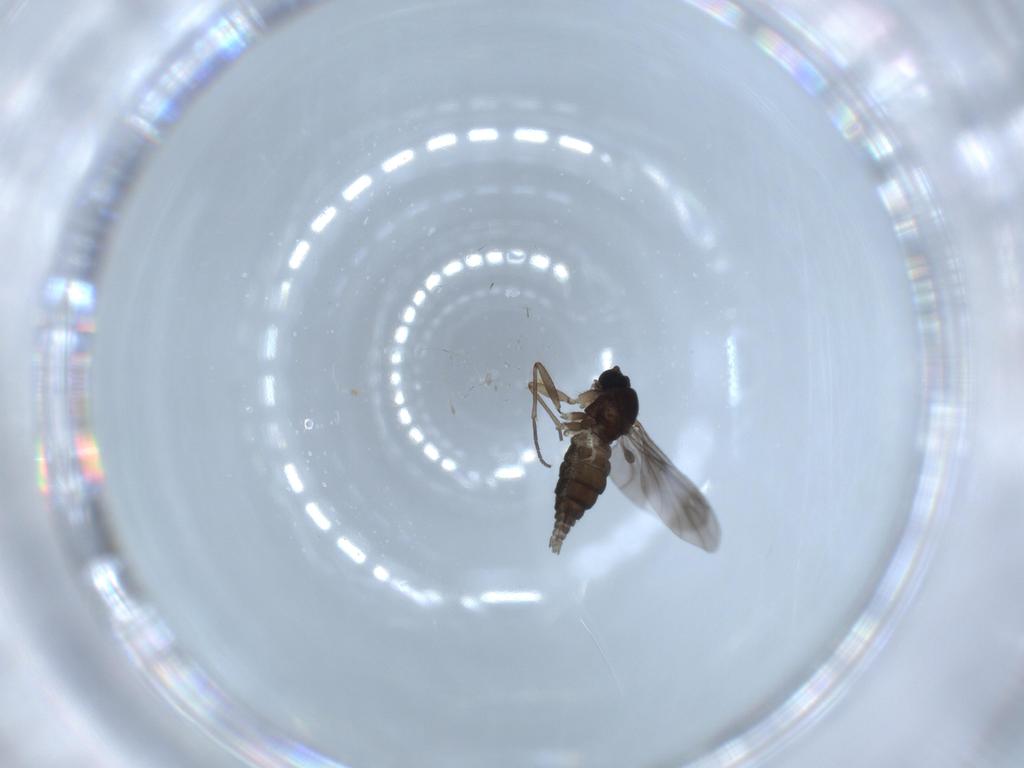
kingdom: Animalia
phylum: Arthropoda
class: Insecta
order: Diptera
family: Sciaridae
